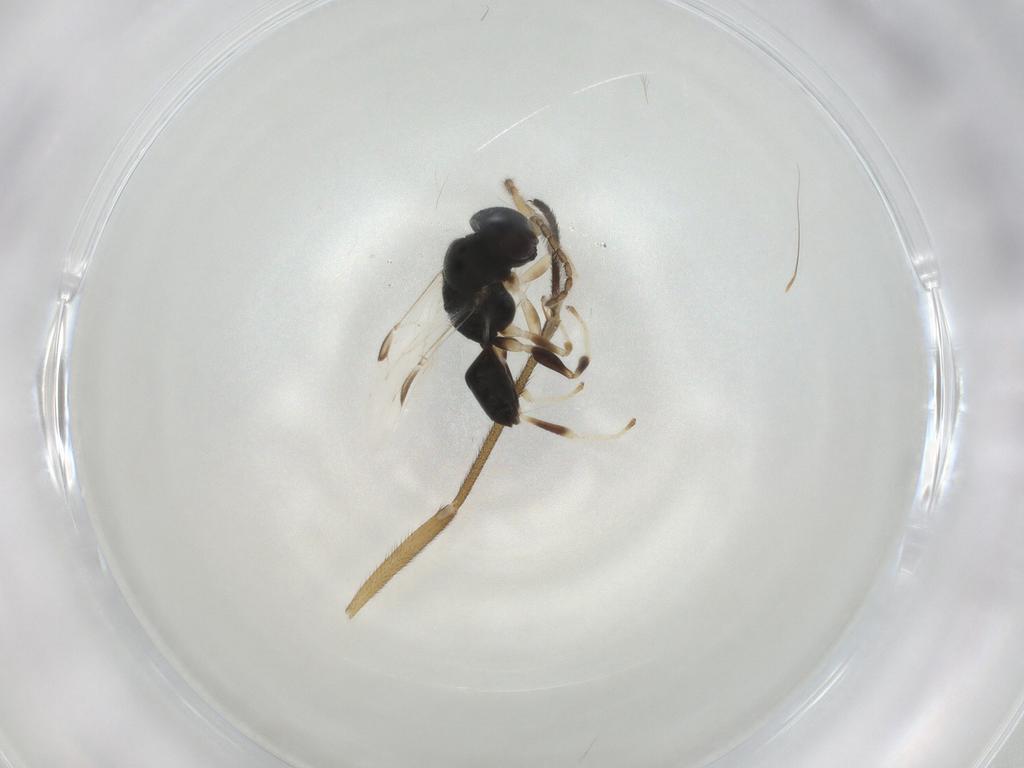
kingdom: Animalia
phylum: Arthropoda
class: Insecta
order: Hymenoptera
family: Dryinidae
